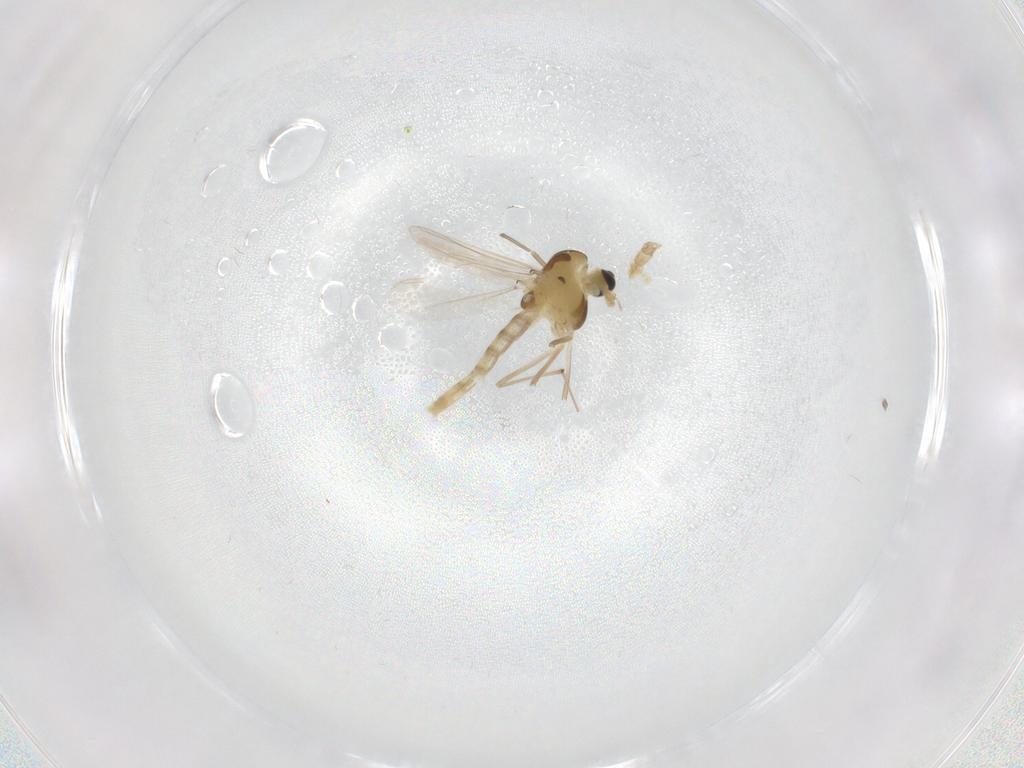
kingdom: Animalia
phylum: Arthropoda
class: Insecta
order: Diptera
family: Chironomidae
